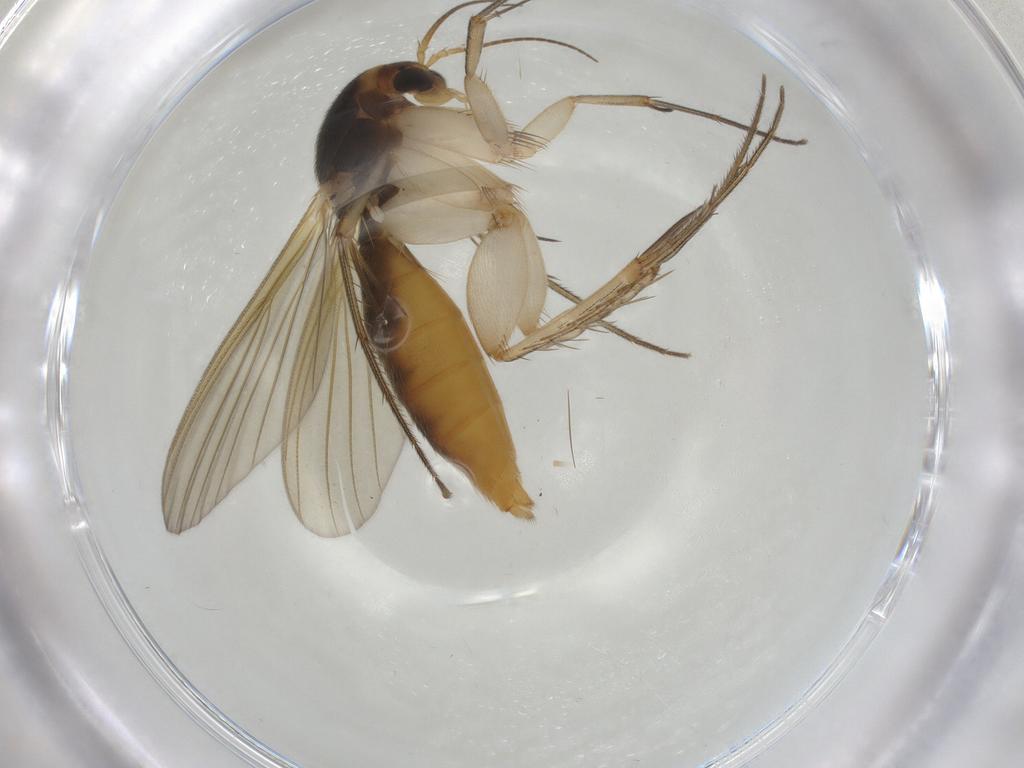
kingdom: Animalia
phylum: Arthropoda
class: Insecta
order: Diptera
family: Mycetophilidae
